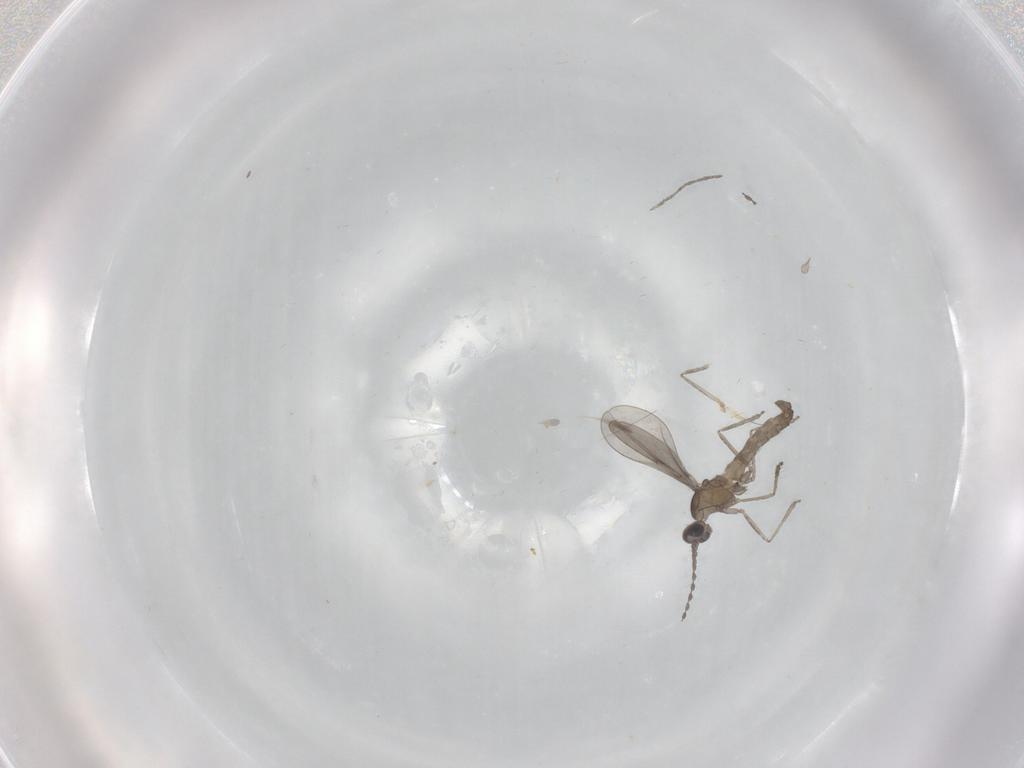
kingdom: Animalia
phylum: Arthropoda
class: Insecta
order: Diptera
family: Cecidomyiidae
